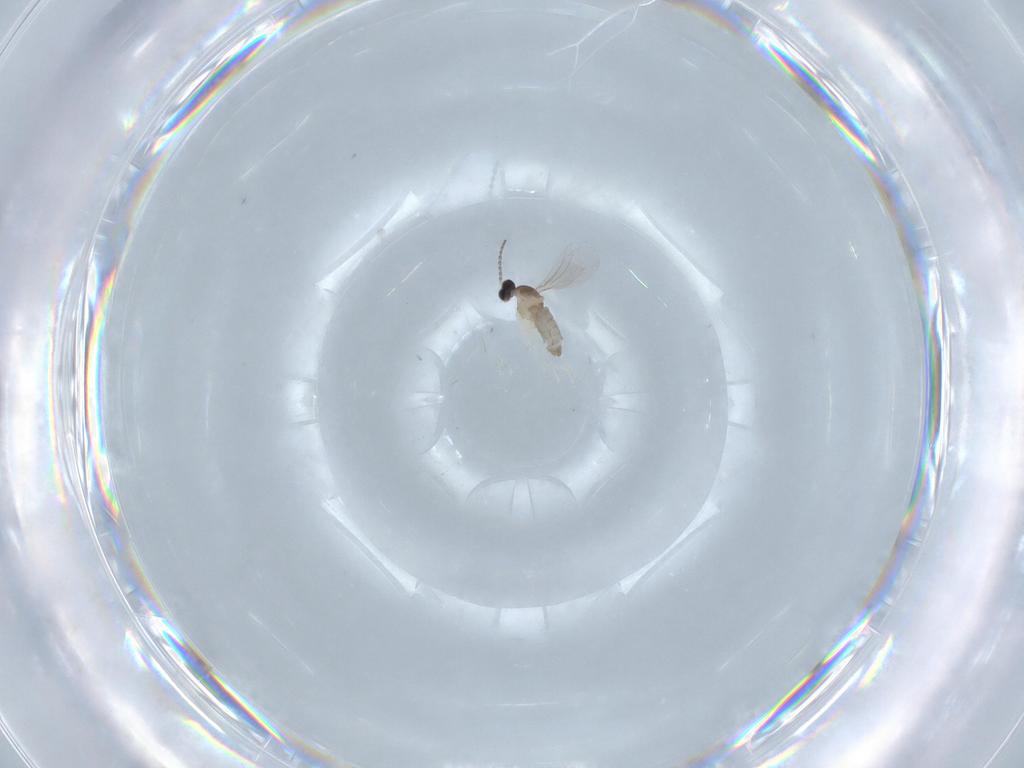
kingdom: Animalia
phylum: Arthropoda
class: Insecta
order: Diptera
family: Cecidomyiidae
